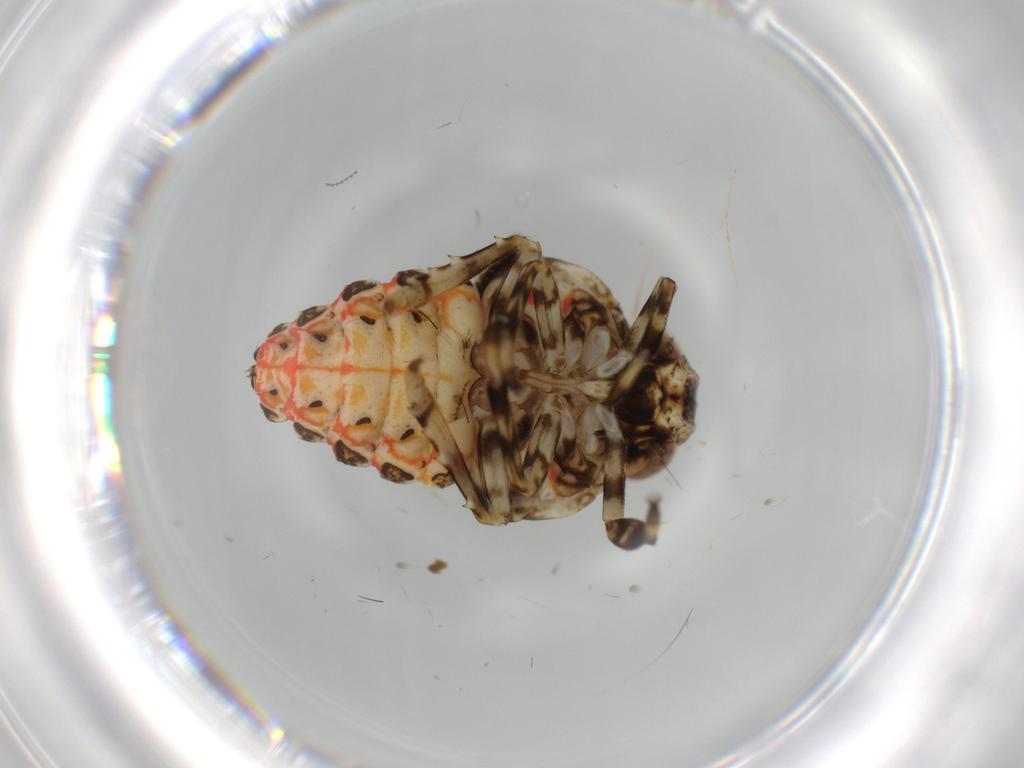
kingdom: Animalia
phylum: Arthropoda
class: Insecta
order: Hemiptera
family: Issidae
